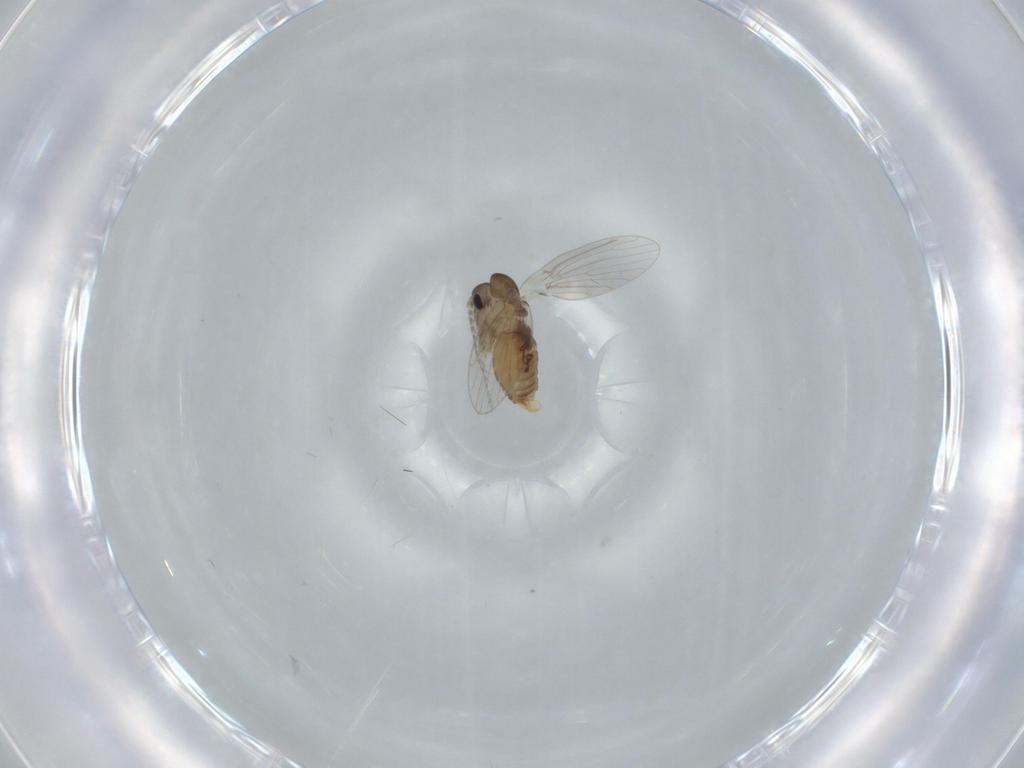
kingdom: Animalia
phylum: Arthropoda
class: Insecta
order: Diptera
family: Psychodidae
